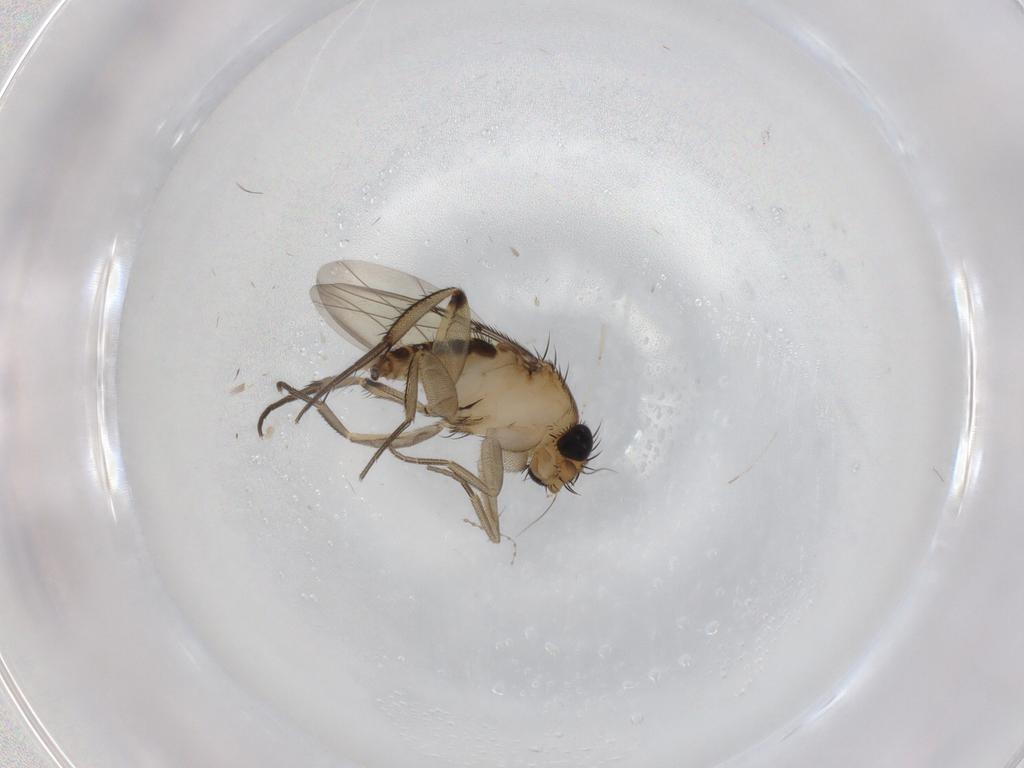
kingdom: Animalia
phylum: Arthropoda
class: Insecta
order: Diptera
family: Phoridae
